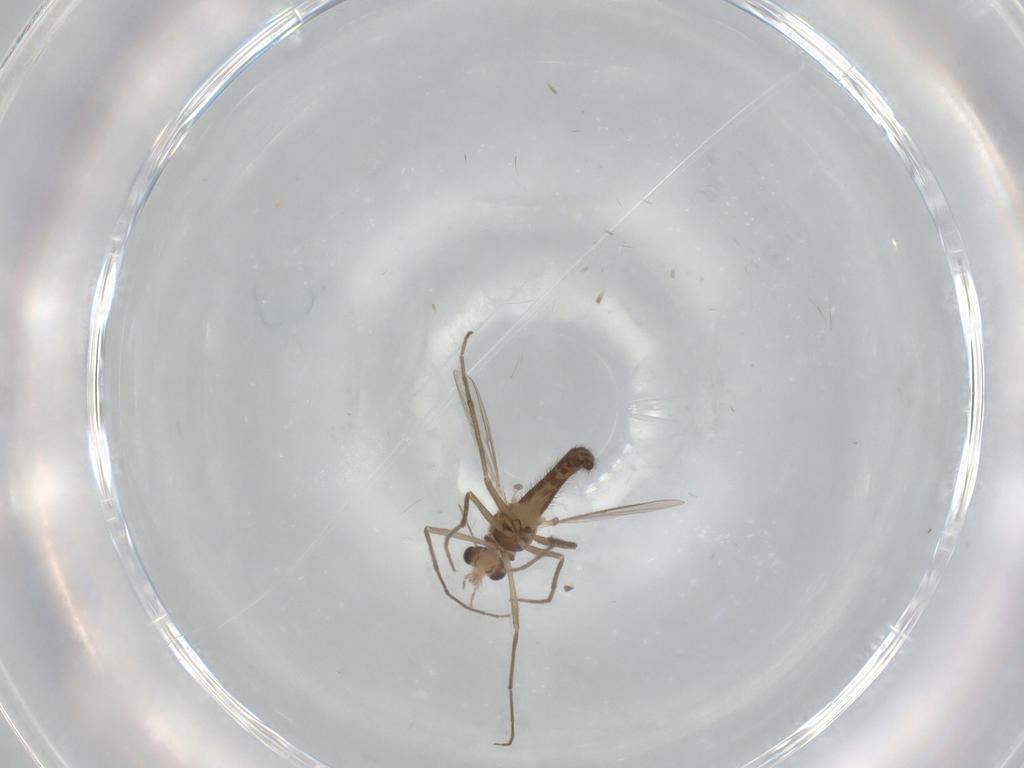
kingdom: Animalia
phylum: Arthropoda
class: Insecta
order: Diptera
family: Chironomidae
